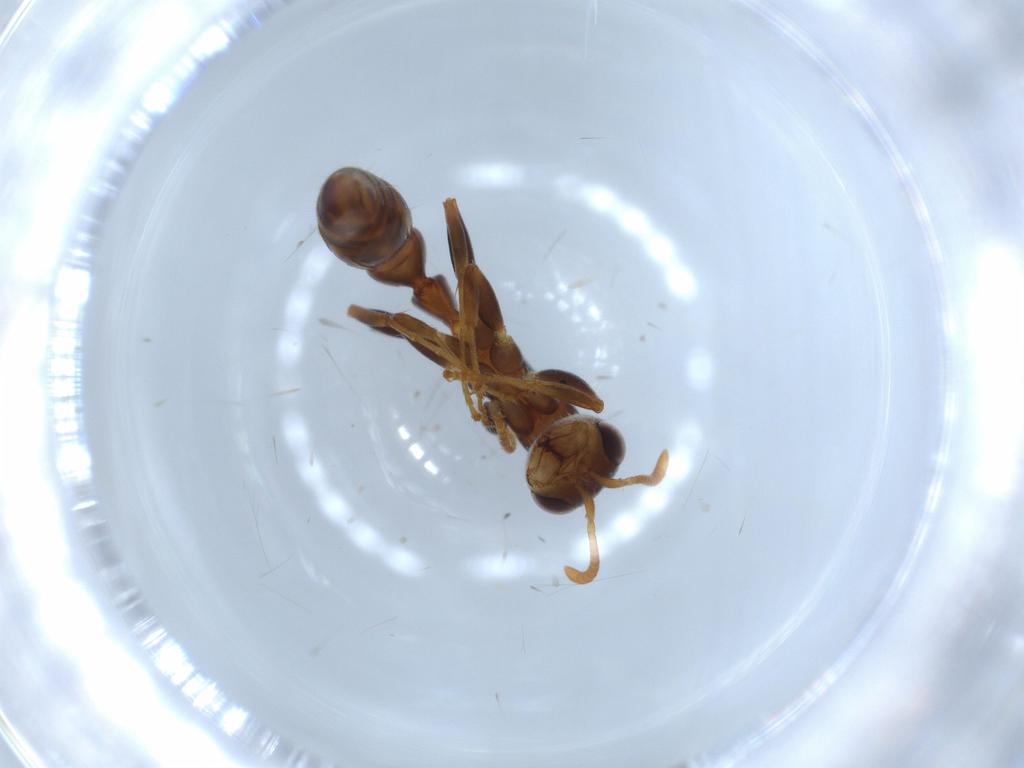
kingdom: Animalia
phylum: Arthropoda
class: Insecta
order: Hymenoptera
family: Formicidae
